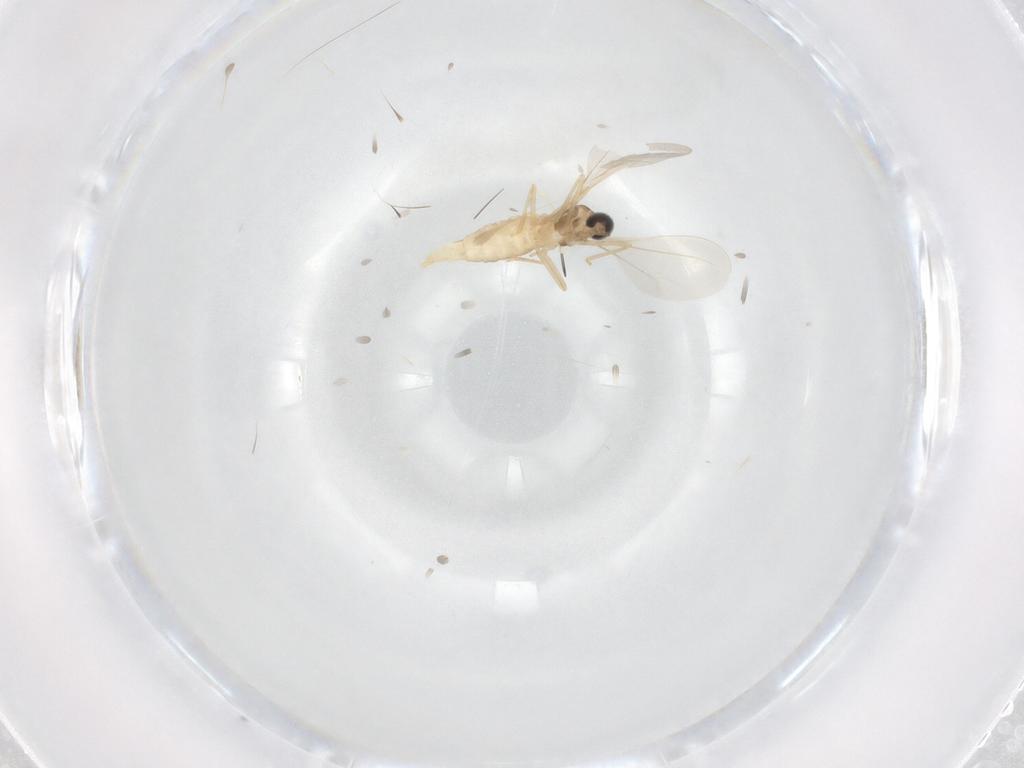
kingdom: Animalia
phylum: Arthropoda
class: Insecta
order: Diptera
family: Cecidomyiidae
